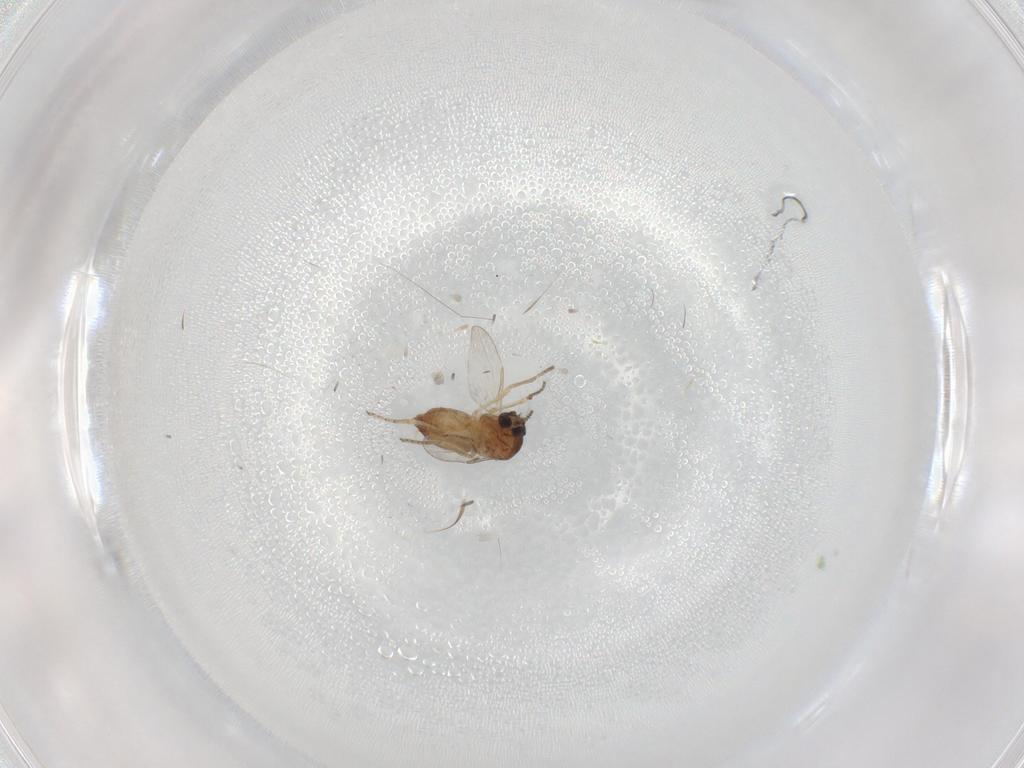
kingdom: Animalia
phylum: Arthropoda
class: Insecta
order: Diptera
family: Ceratopogonidae
